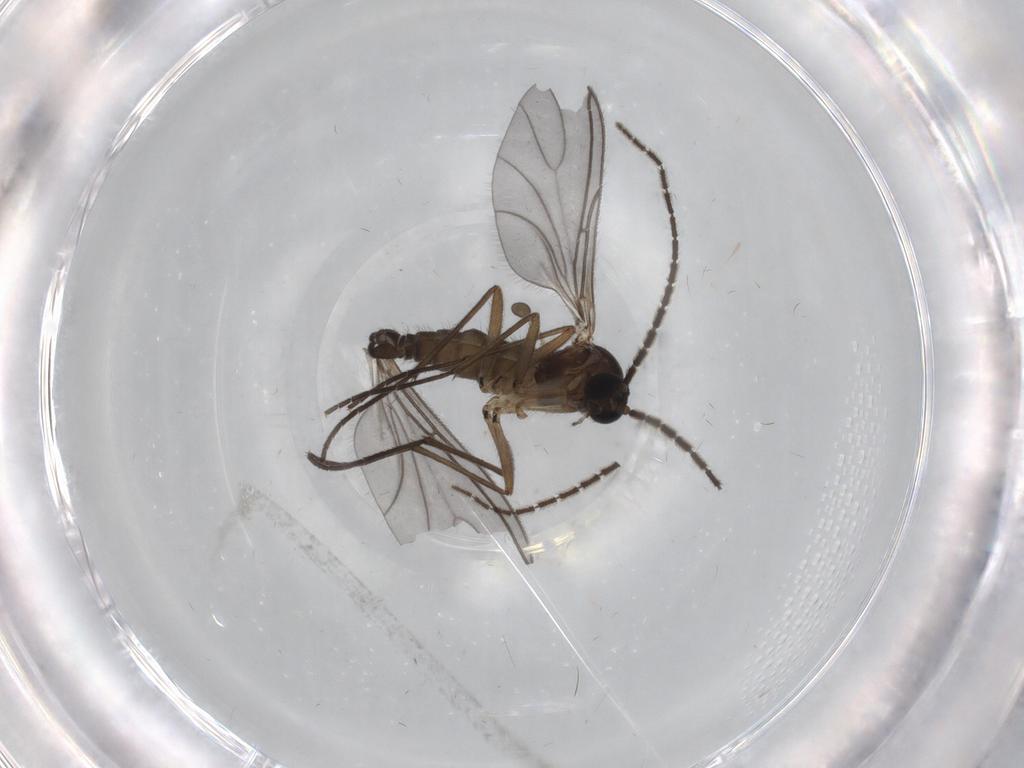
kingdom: Animalia
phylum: Arthropoda
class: Insecta
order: Diptera
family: Sciaridae
